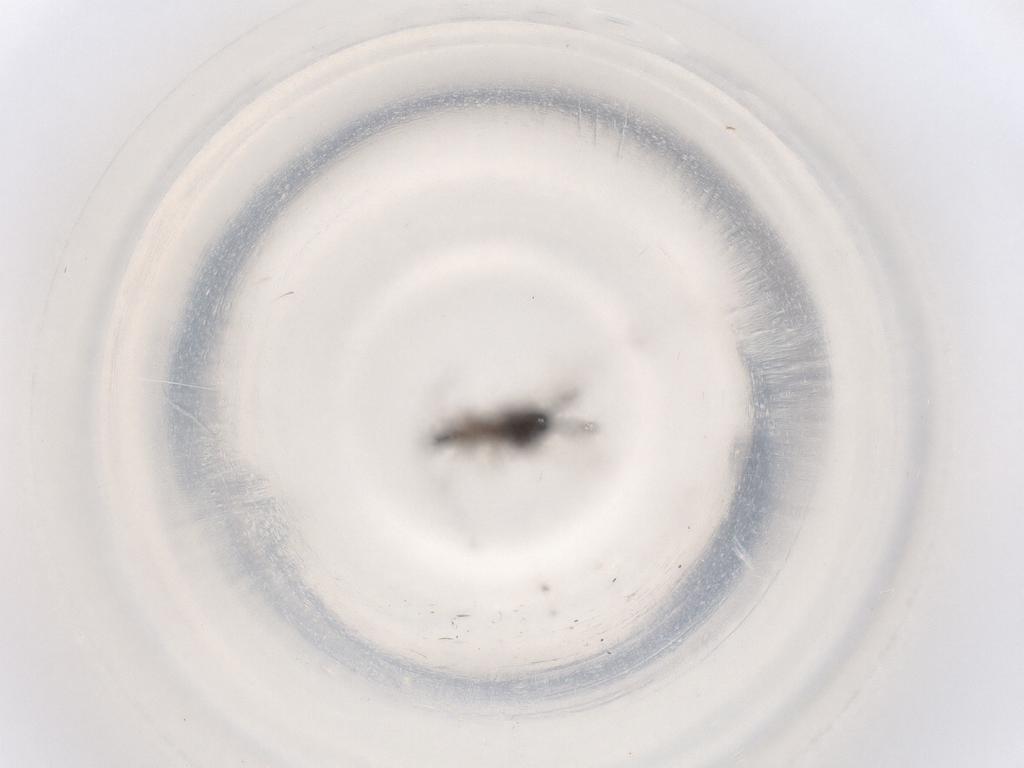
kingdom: Animalia
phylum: Arthropoda
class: Insecta
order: Diptera
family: Ceratopogonidae
